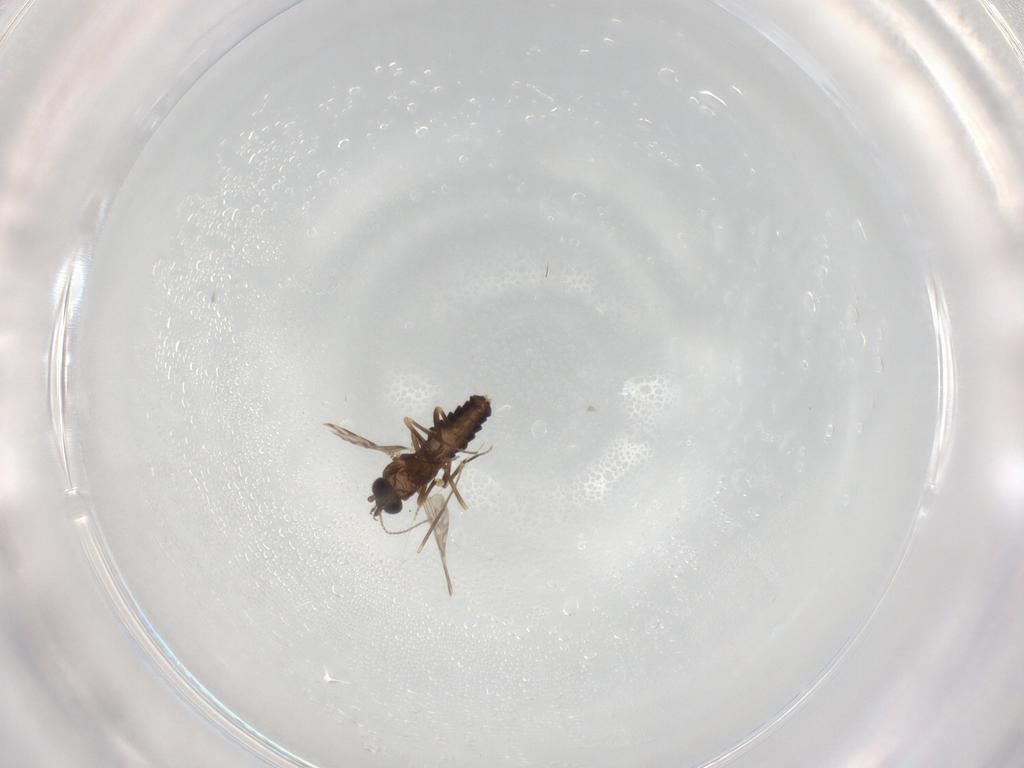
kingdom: Animalia
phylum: Arthropoda
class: Insecta
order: Diptera
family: Ceratopogonidae
